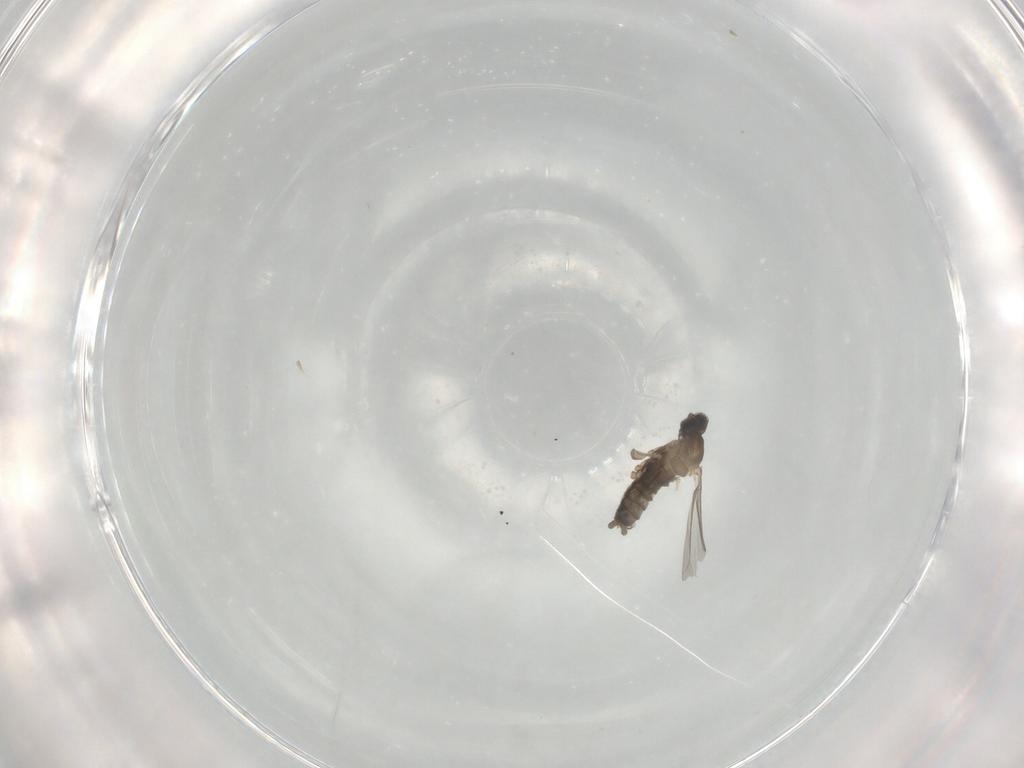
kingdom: Animalia
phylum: Arthropoda
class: Insecta
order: Diptera
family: Cecidomyiidae
